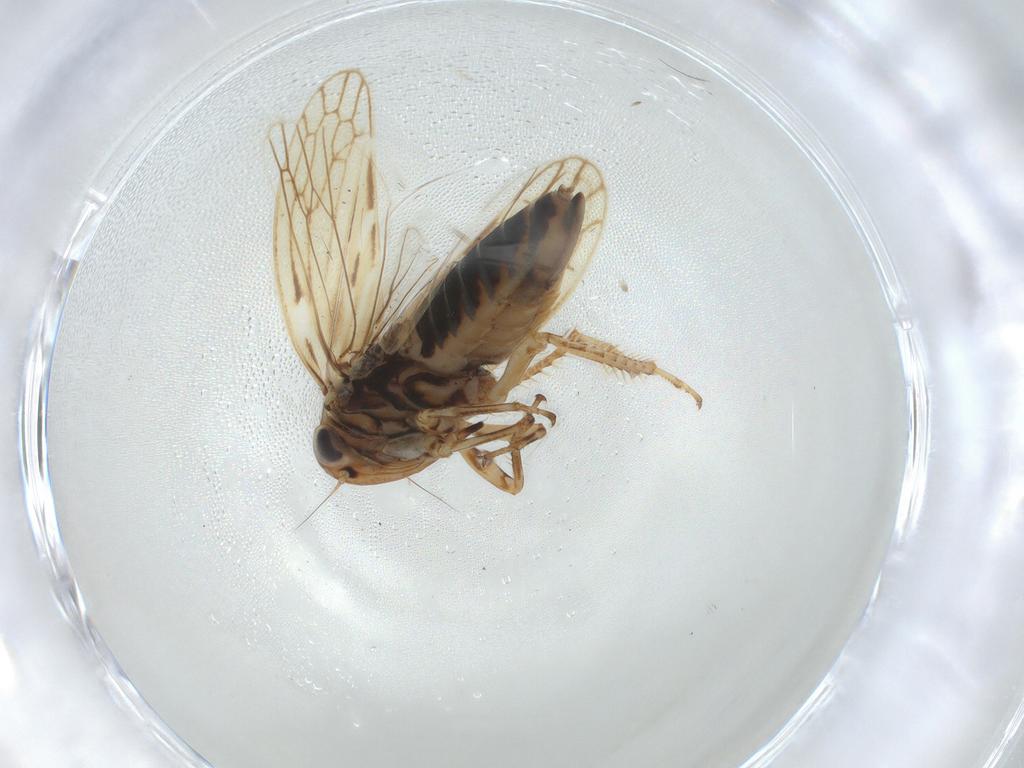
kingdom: Animalia
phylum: Arthropoda
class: Insecta
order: Hemiptera
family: Cicadellidae
